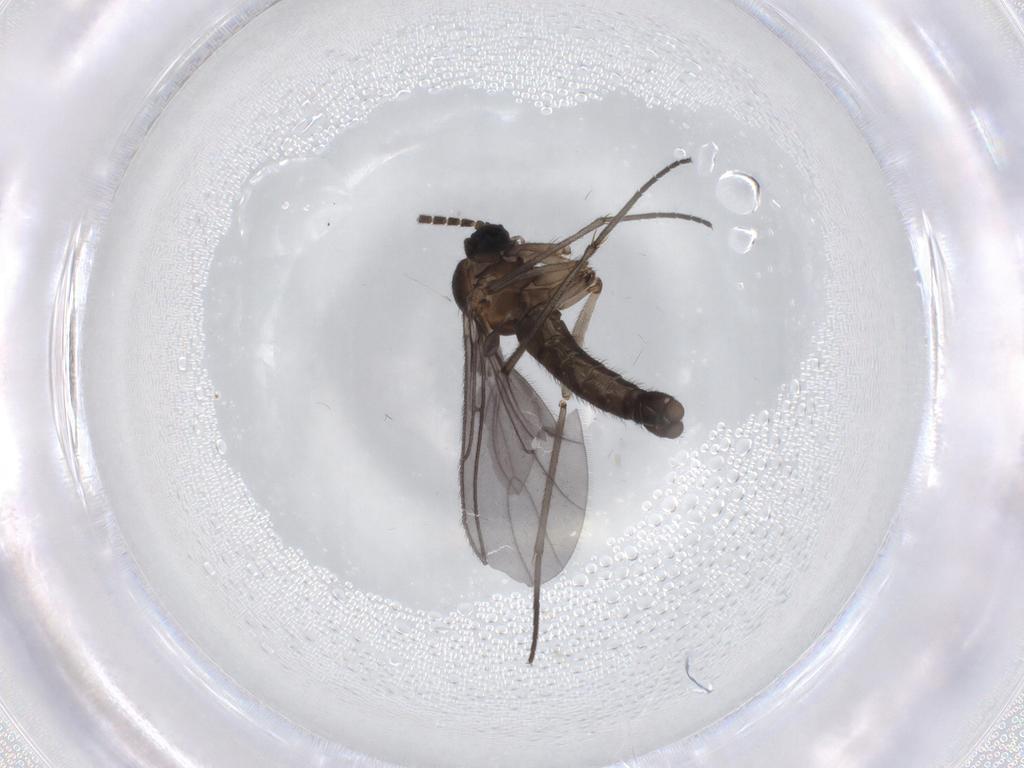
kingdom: Animalia
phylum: Arthropoda
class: Insecta
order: Diptera
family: Sciaridae
